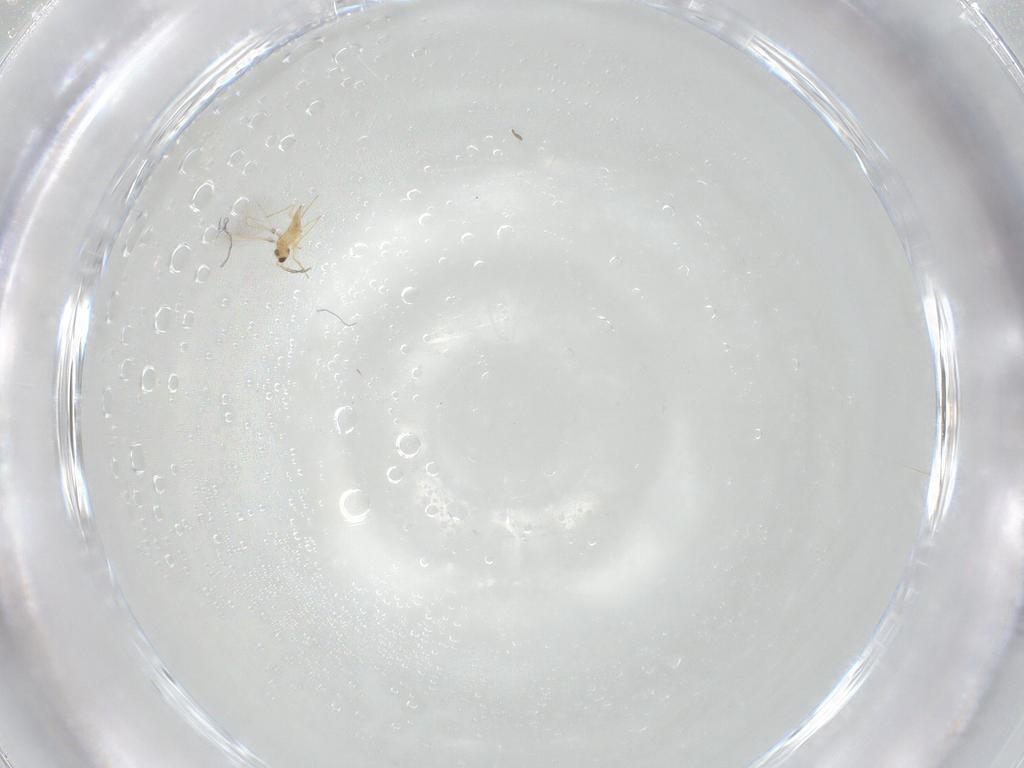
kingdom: Animalia
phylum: Arthropoda
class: Insecta
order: Hymenoptera
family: Mymaridae
